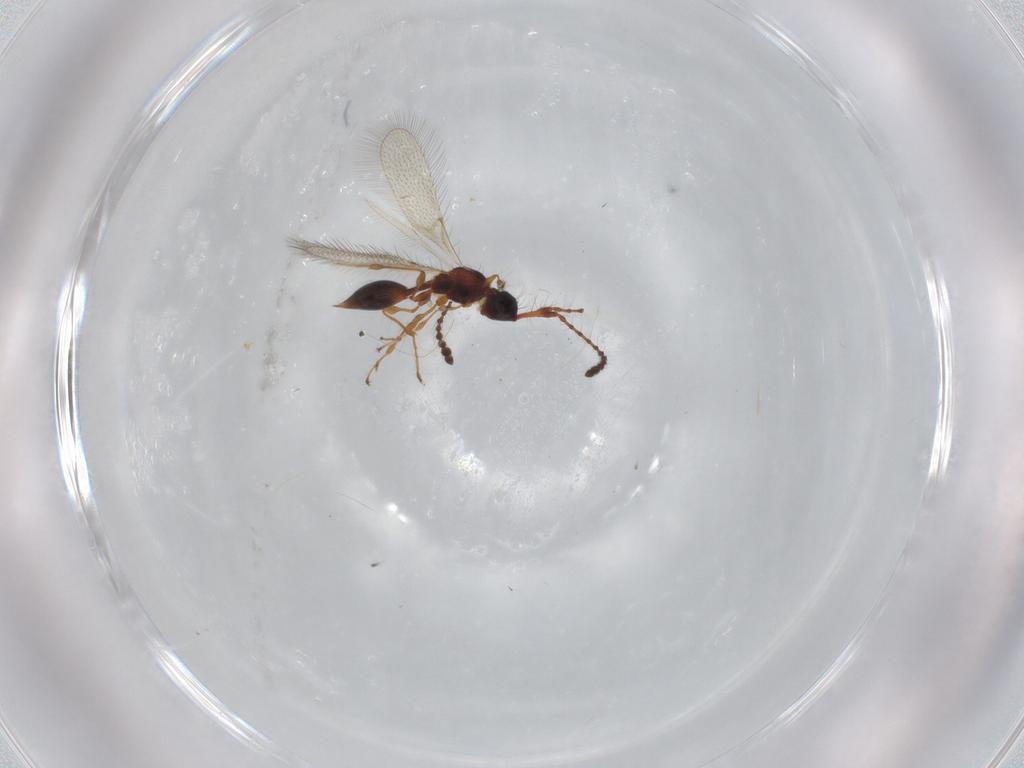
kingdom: Animalia
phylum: Arthropoda
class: Insecta
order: Hymenoptera
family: Diapriidae
